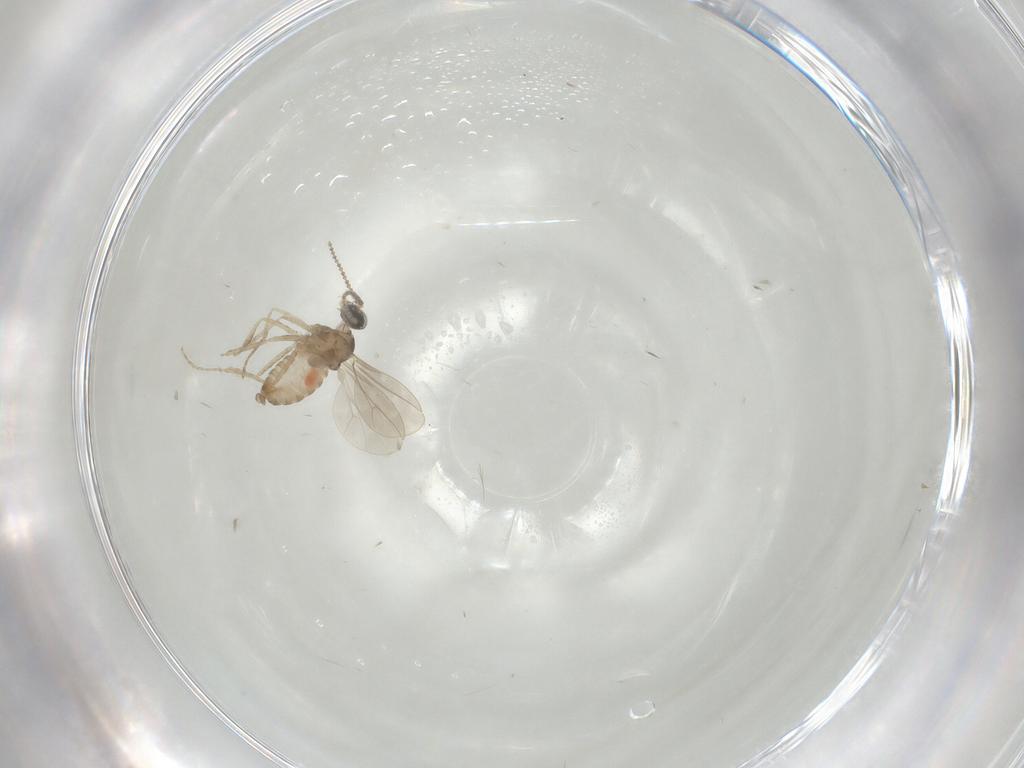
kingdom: Animalia
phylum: Arthropoda
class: Insecta
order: Diptera
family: Cecidomyiidae
